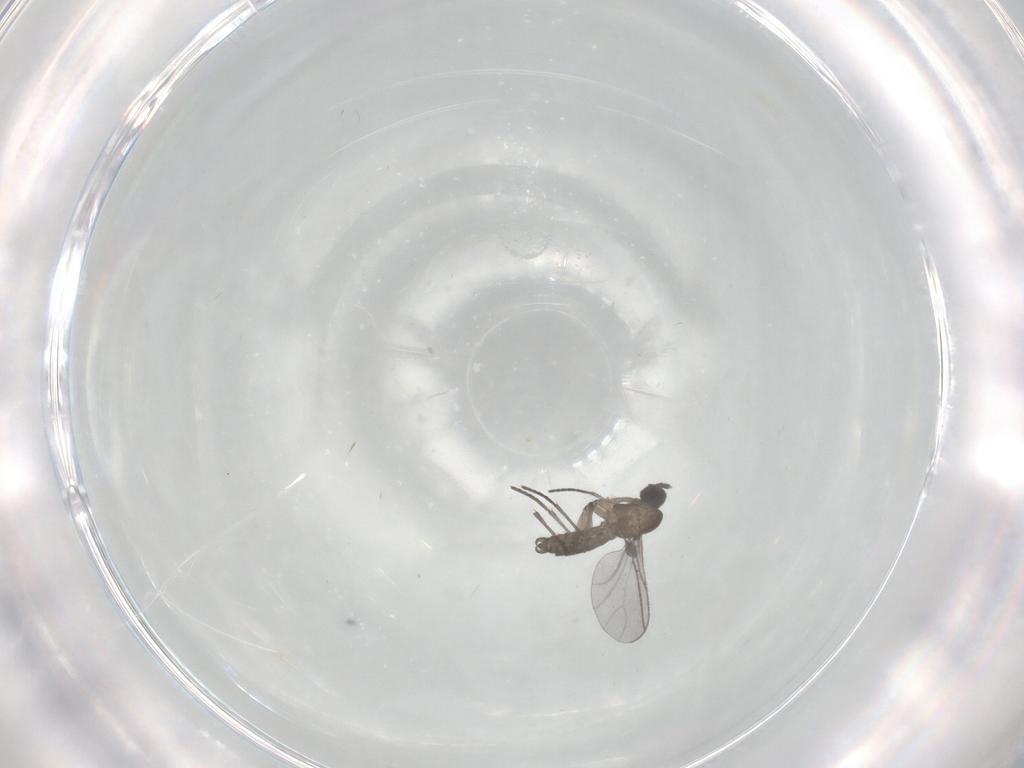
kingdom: Animalia
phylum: Arthropoda
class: Insecta
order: Diptera
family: Sciaridae
